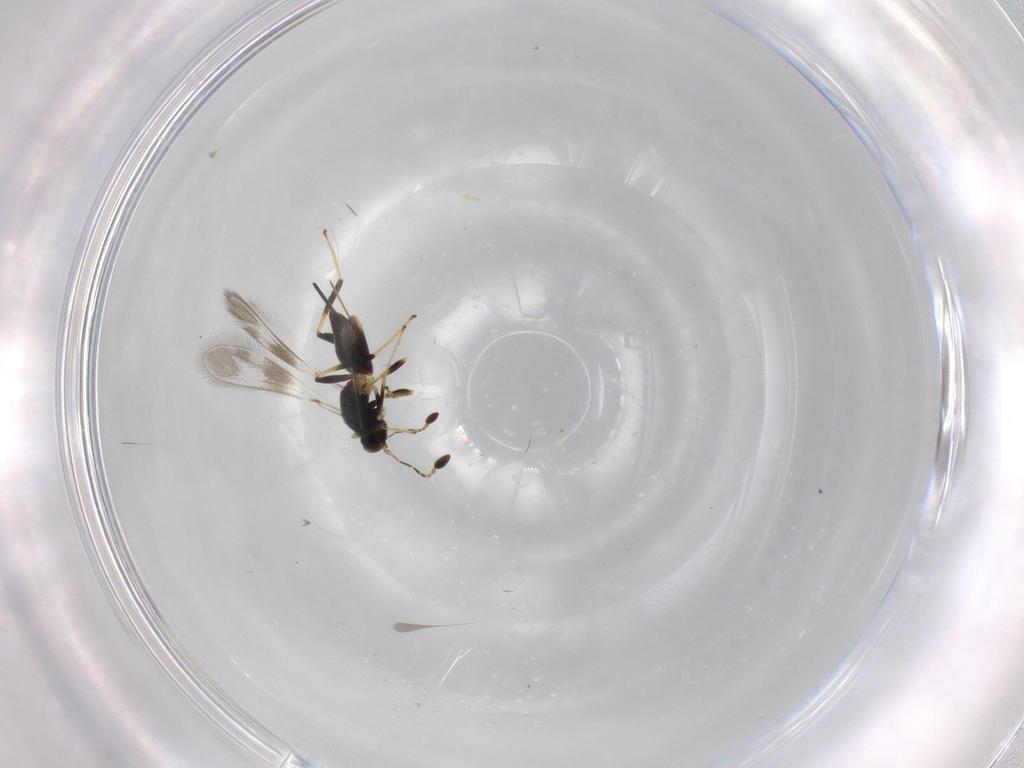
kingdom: Animalia
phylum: Arthropoda
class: Insecta
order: Hymenoptera
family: Mymaridae
